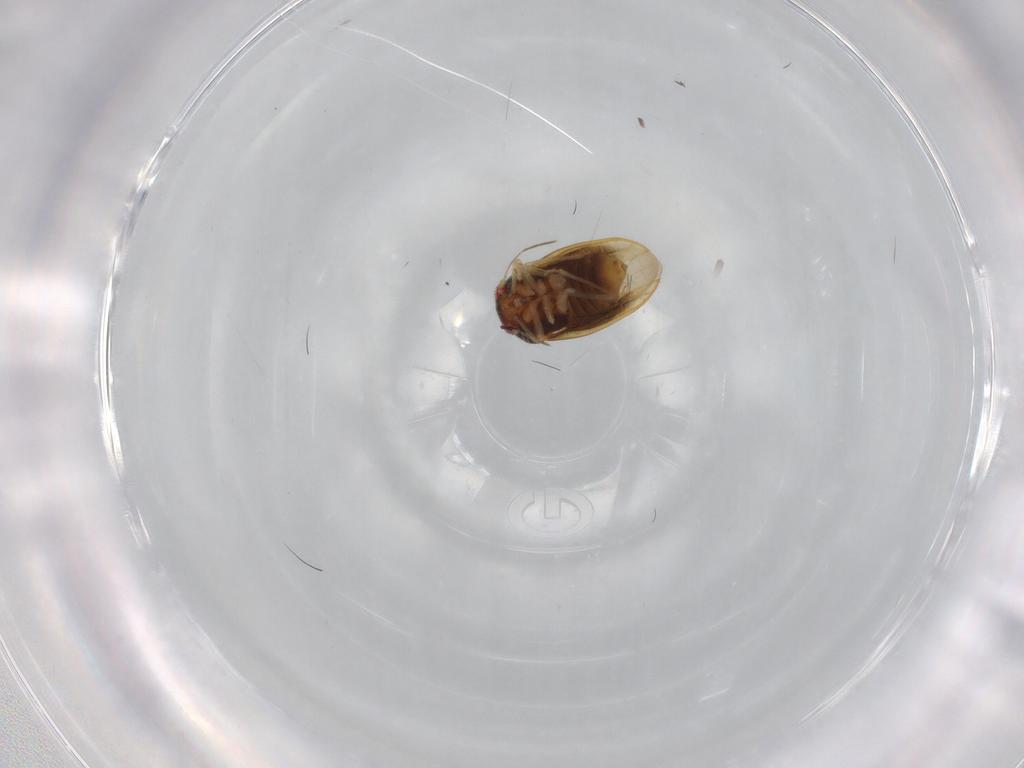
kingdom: Animalia
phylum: Arthropoda
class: Insecta
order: Hemiptera
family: Schizopteridae
